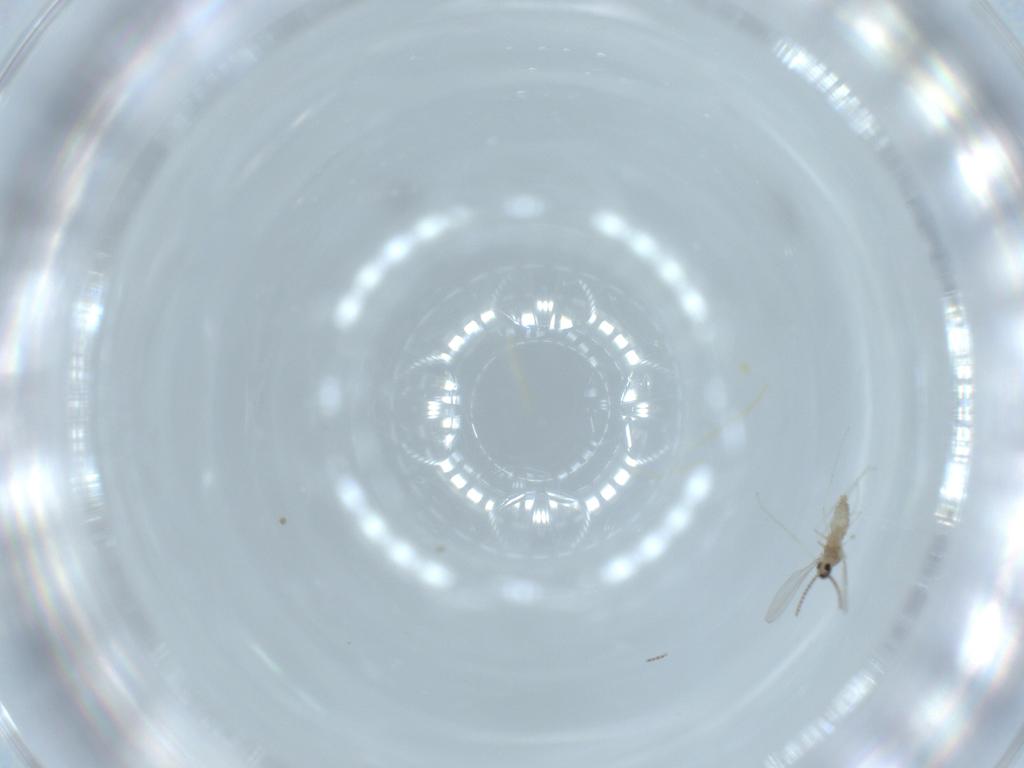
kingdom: Animalia
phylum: Arthropoda
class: Insecta
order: Diptera
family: Cecidomyiidae
